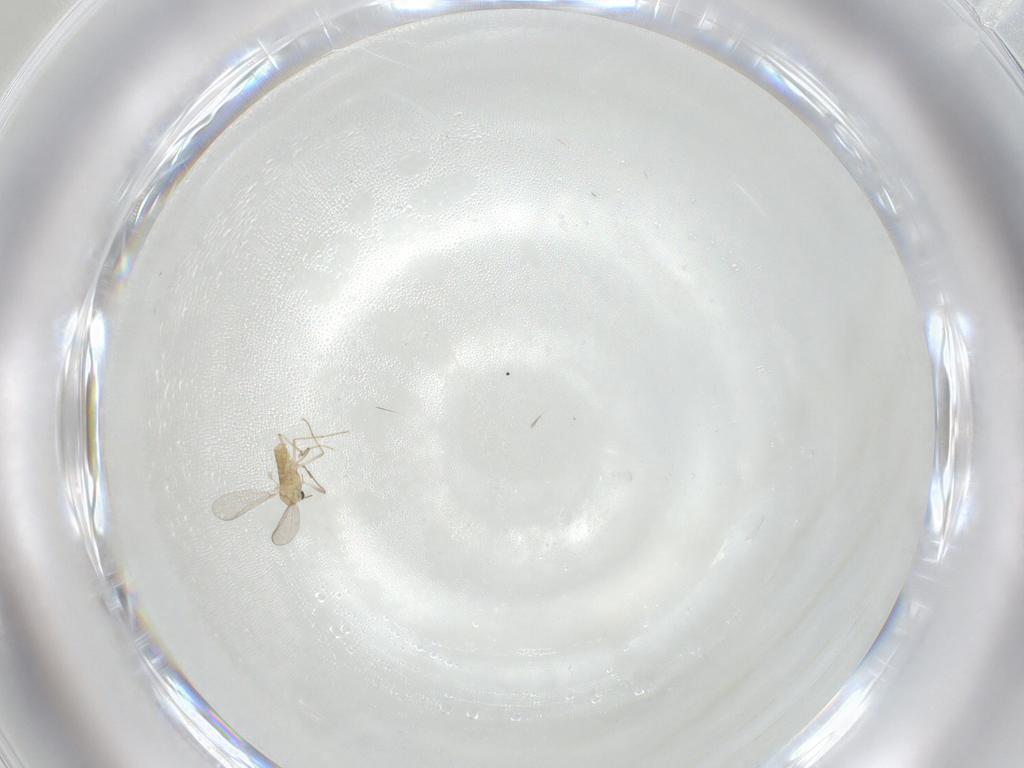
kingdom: Animalia
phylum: Arthropoda
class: Insecta
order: Diptera
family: Chironomidae
